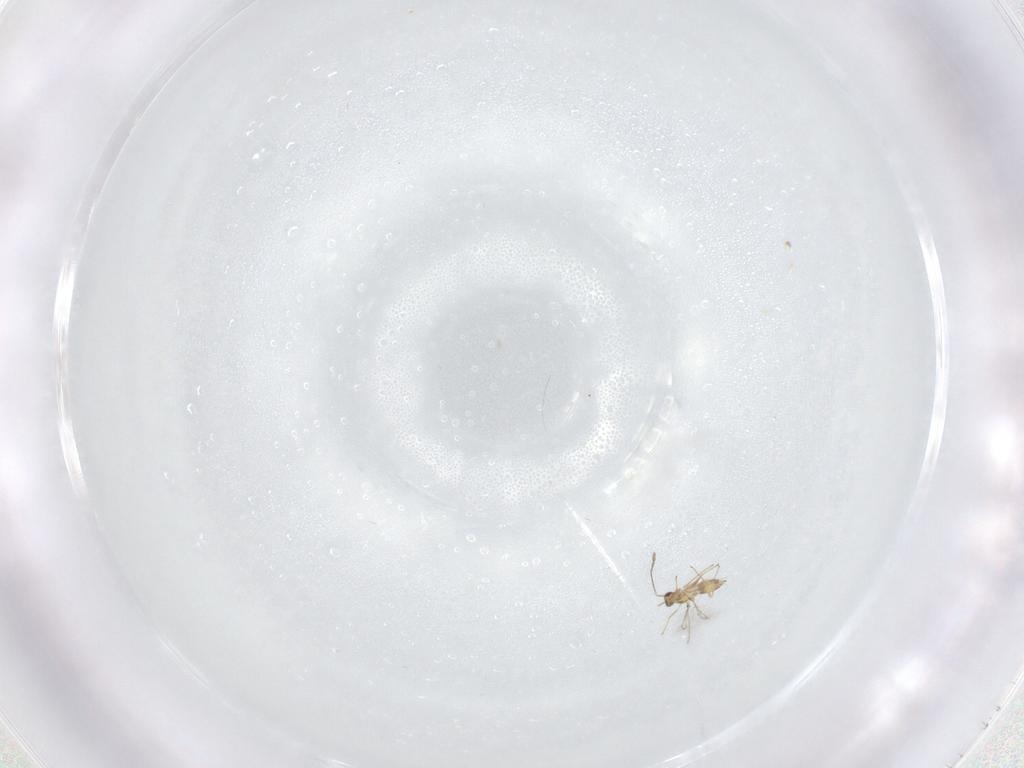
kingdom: Animalia
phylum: Arthropoda
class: Insecta
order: Hymenoptera
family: Mymaridae
